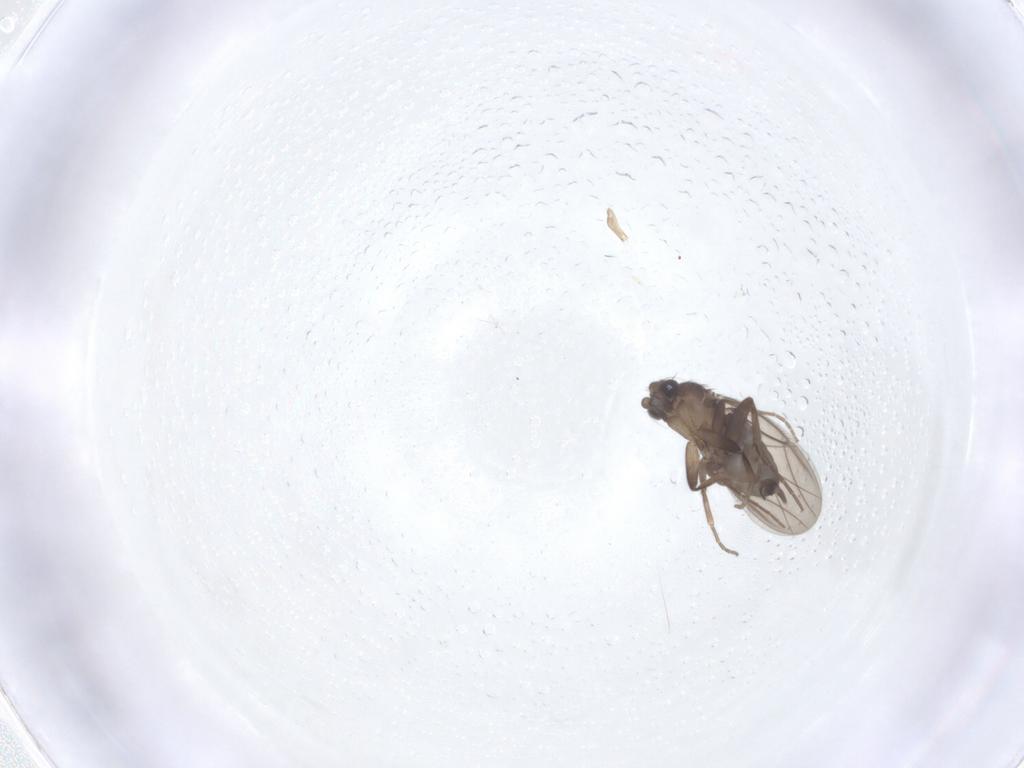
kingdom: Animalia
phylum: Arthropoda
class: Insecta
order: Diptera
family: Phoridae
